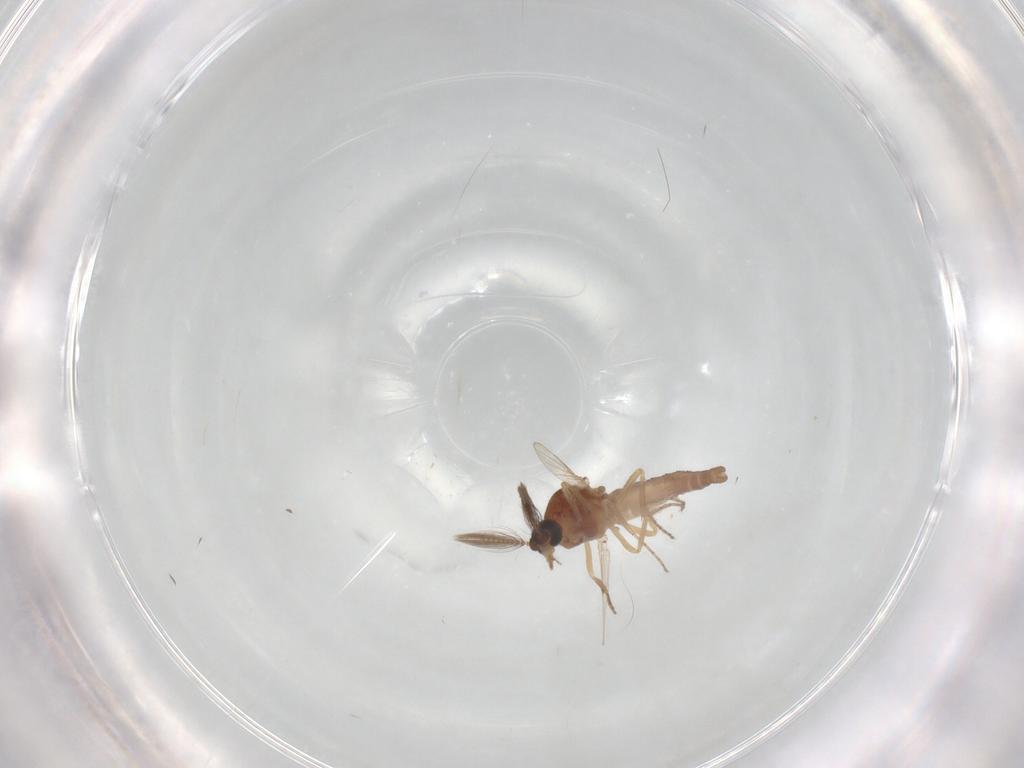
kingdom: Animalia
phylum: Arthropoda
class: Insecta
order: Diptera
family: Ceratopogonidae
